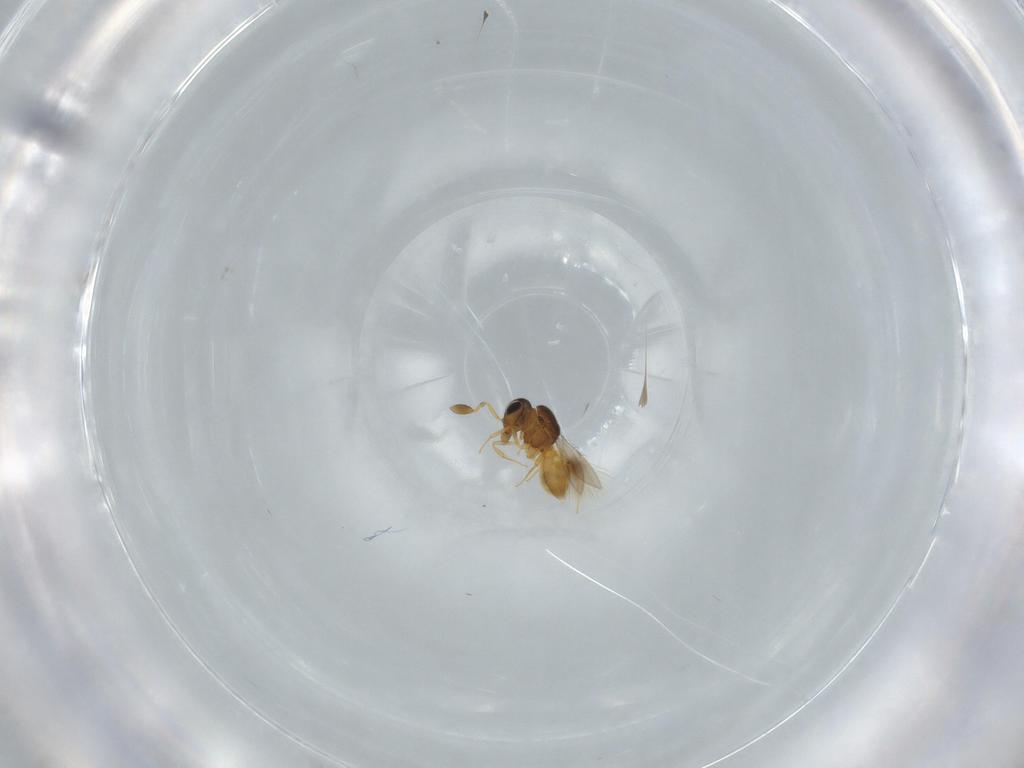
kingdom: Animalia
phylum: Arthropoda
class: Insecta
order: Hymenoptera
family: Scelionidae
